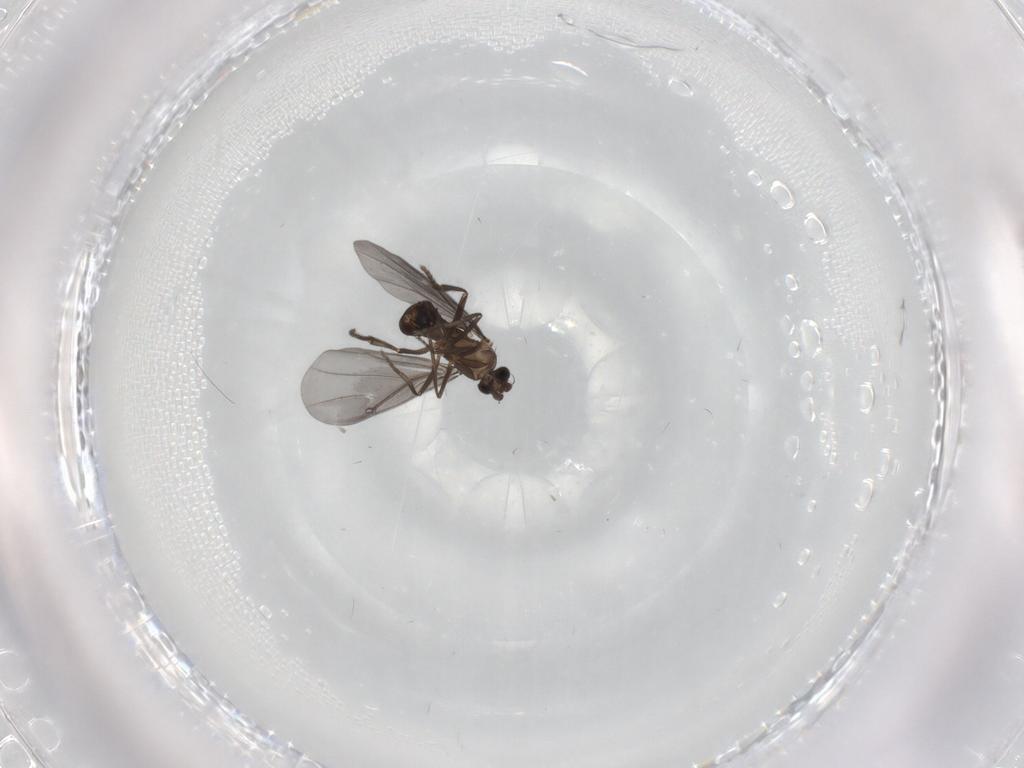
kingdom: Animalia
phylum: Arthropoda
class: Insecta
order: Diptera
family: Phoridae
